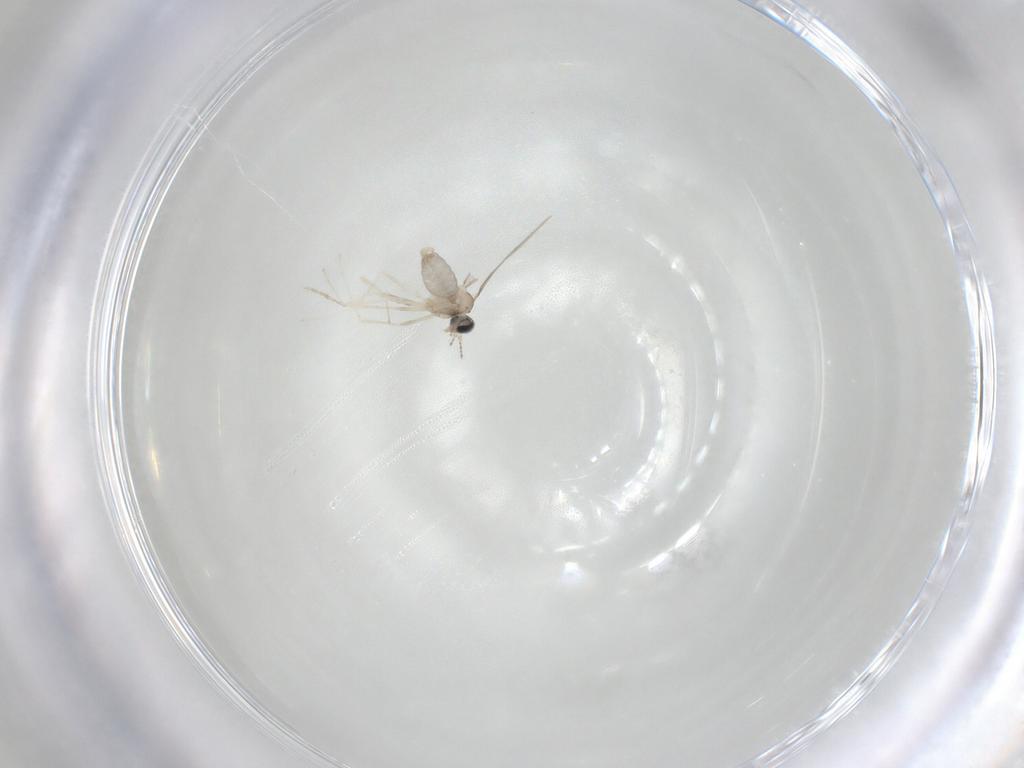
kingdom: Animalia
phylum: Arthropoda
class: Insecta
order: Diptera
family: Cecidomyiidae
